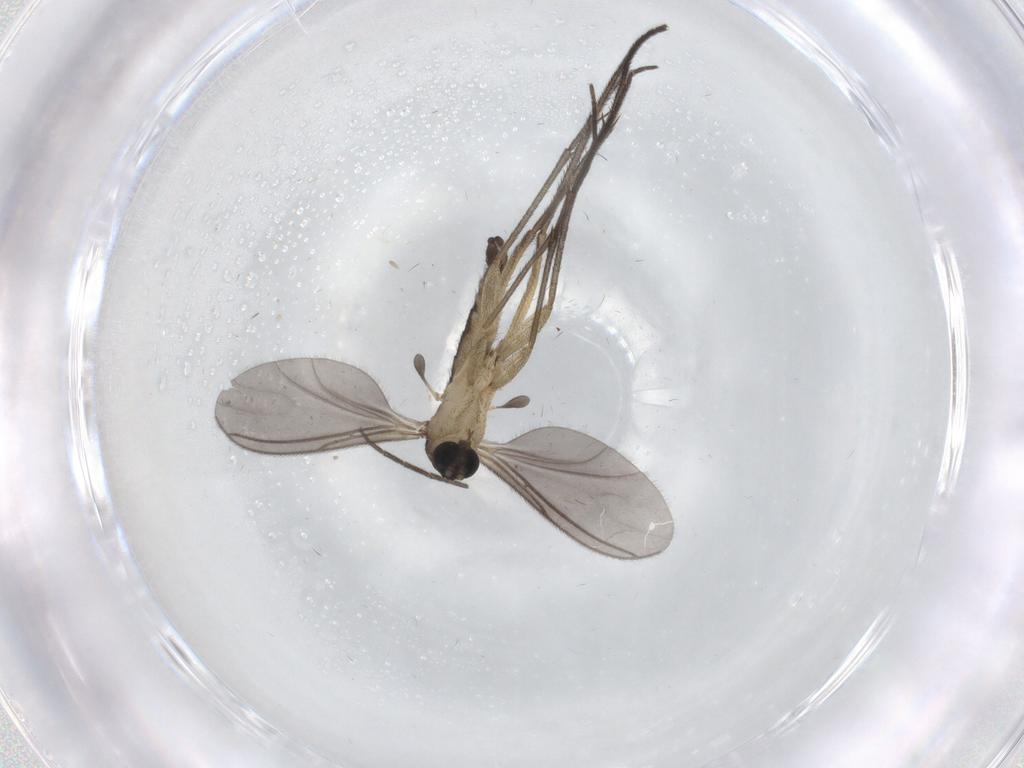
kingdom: Animalia
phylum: Arthropoda
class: Insecta
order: Diptera
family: Sciaridae
